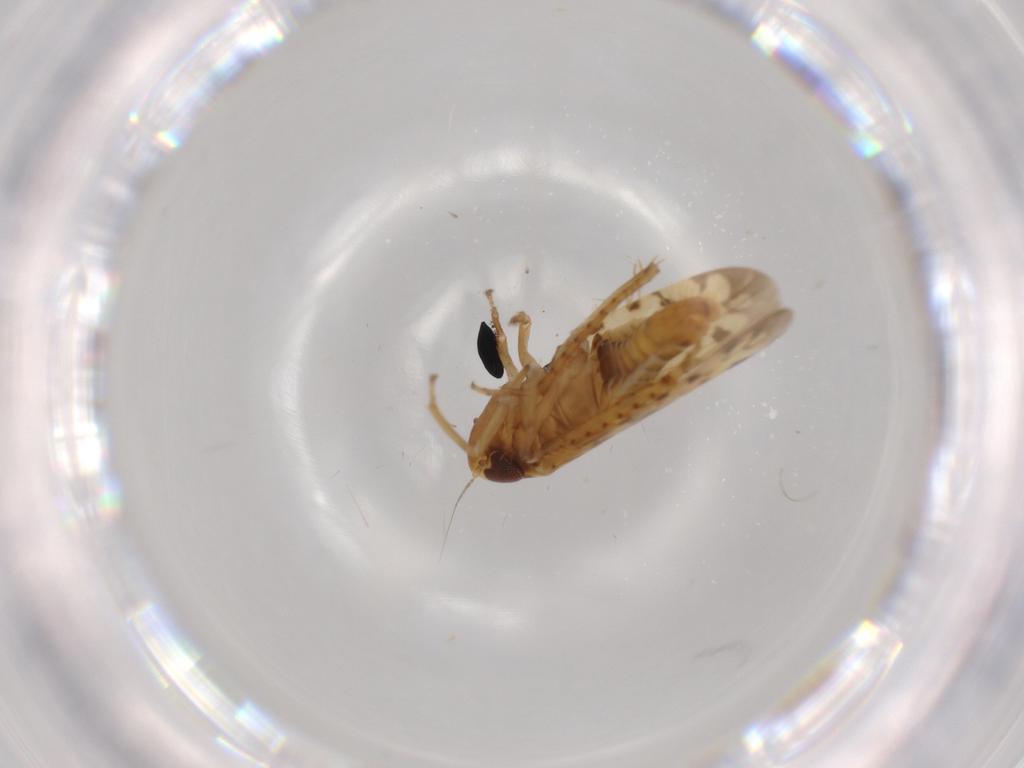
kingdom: Animalia
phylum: Arthropoda
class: Insecta
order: Hemiptera
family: Cicadellidae
